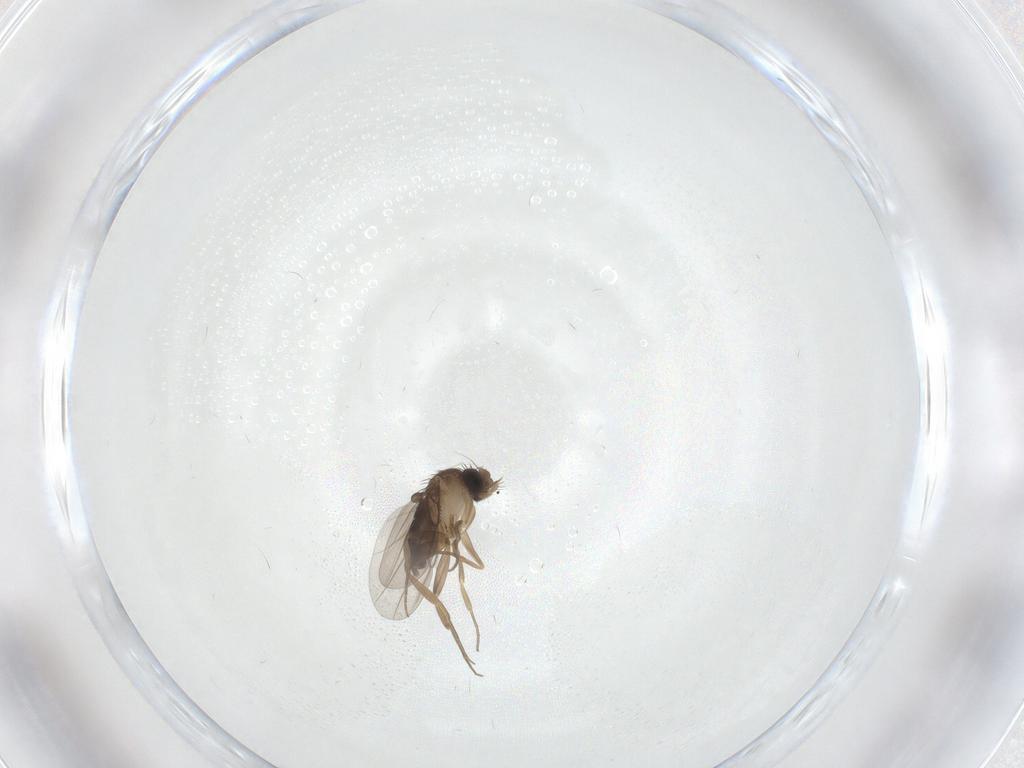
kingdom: Animalia
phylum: Arthropoda
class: Insecta
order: Diptera
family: Phoridae
